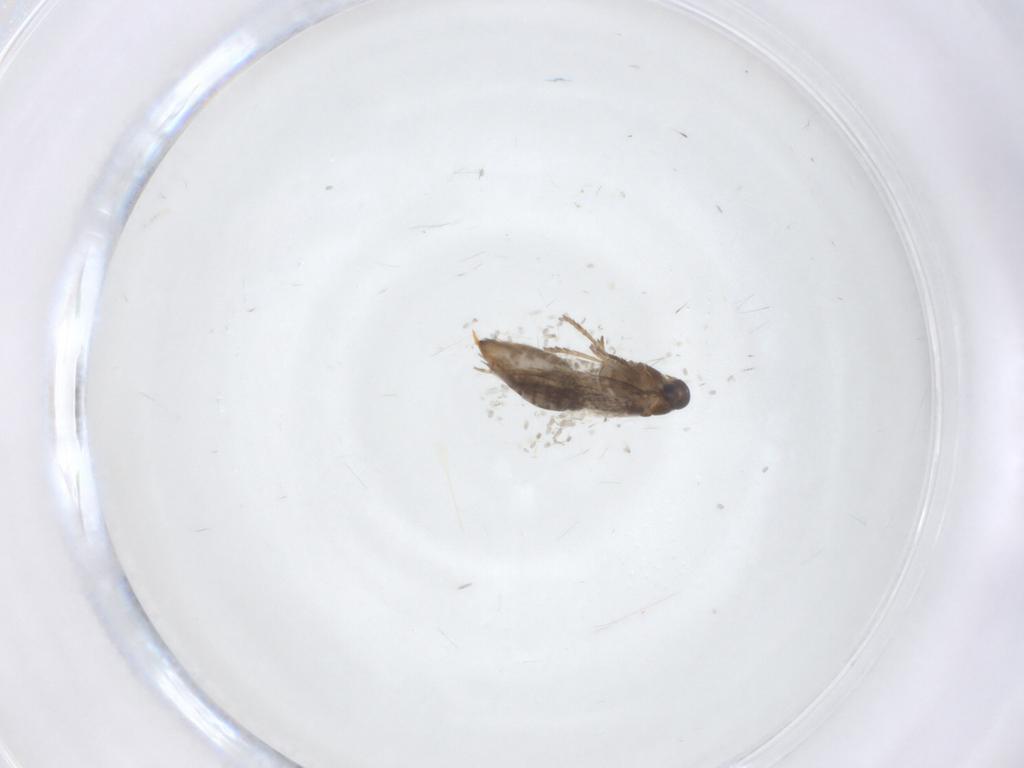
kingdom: Animalia
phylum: Arthropoda
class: Insecta
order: Lepidoptera
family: Heliozelidae
